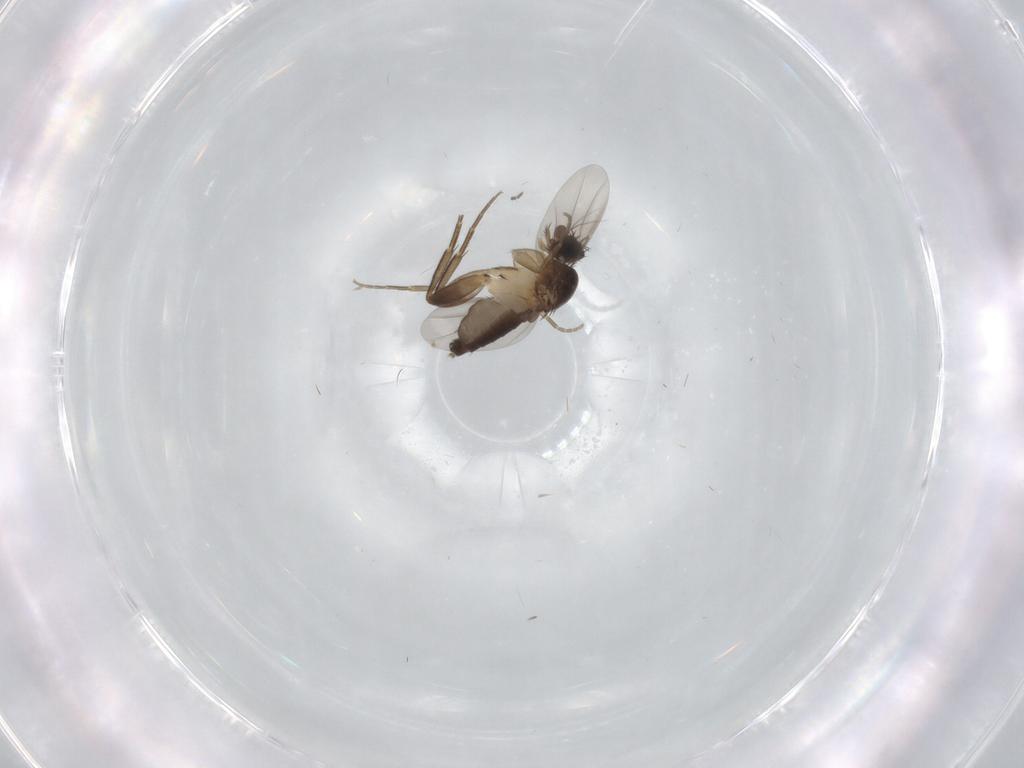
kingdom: Animalia
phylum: Arthropoda
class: Insecta
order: Diptera
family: Phoridae
